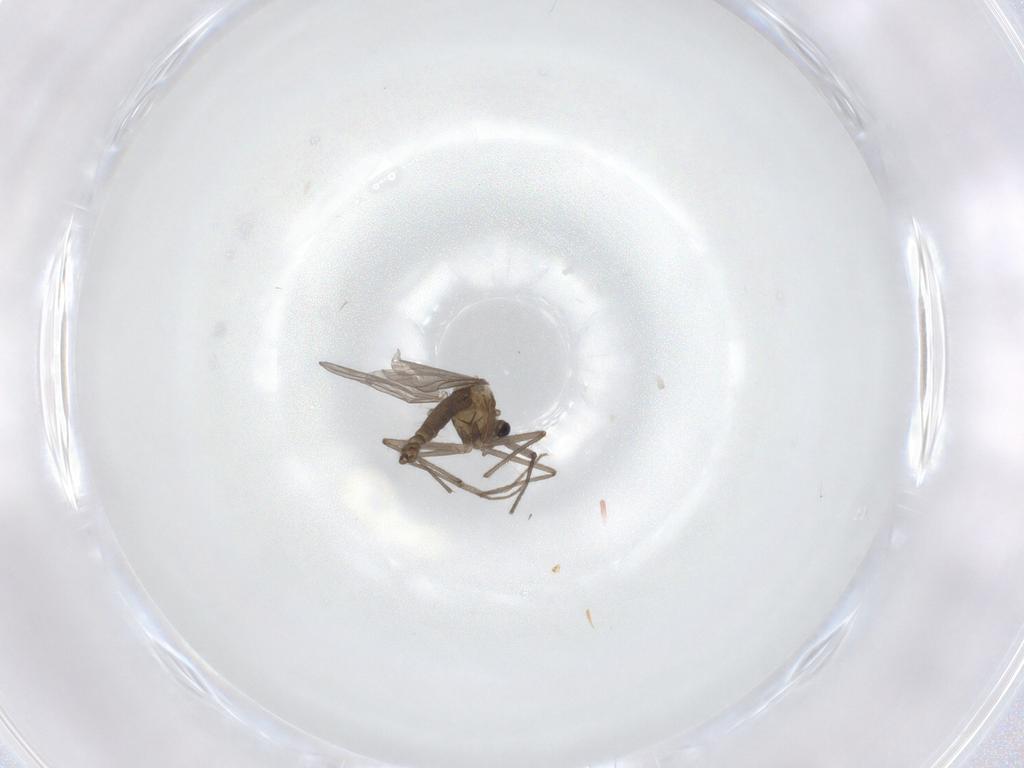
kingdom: Animalia
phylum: Arthropoda
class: Insecta
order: Diptera
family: Chironomidae
